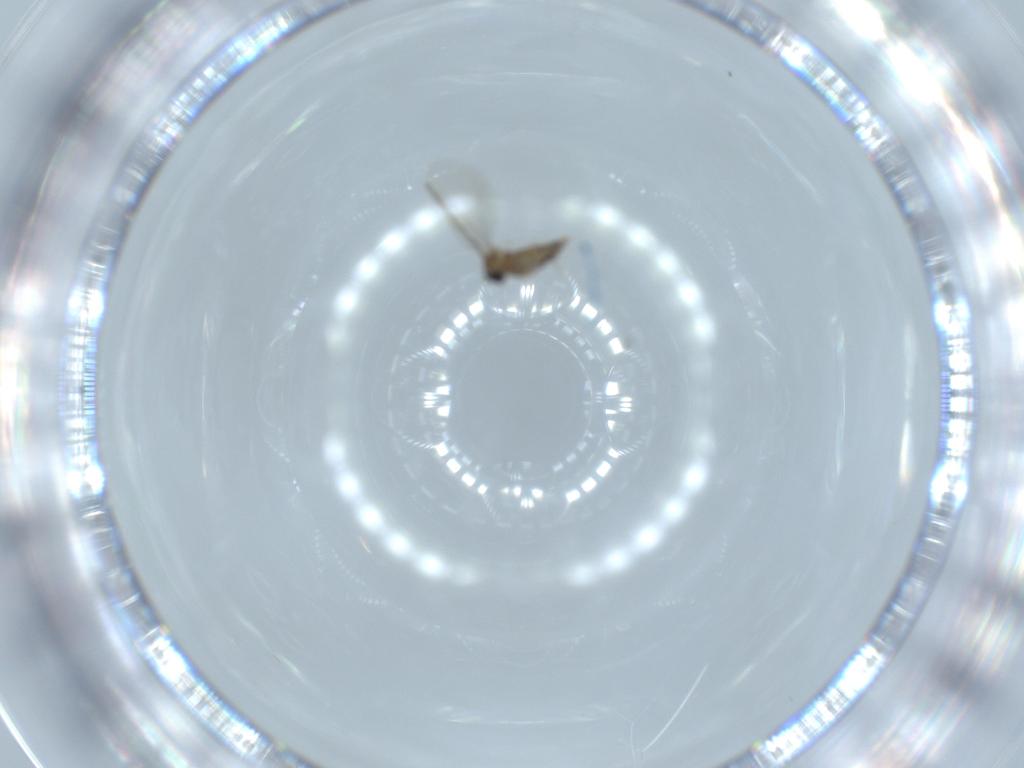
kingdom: Animalia
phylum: Arthropoda
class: Insecta
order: Diptera
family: Cecidomyiidae
